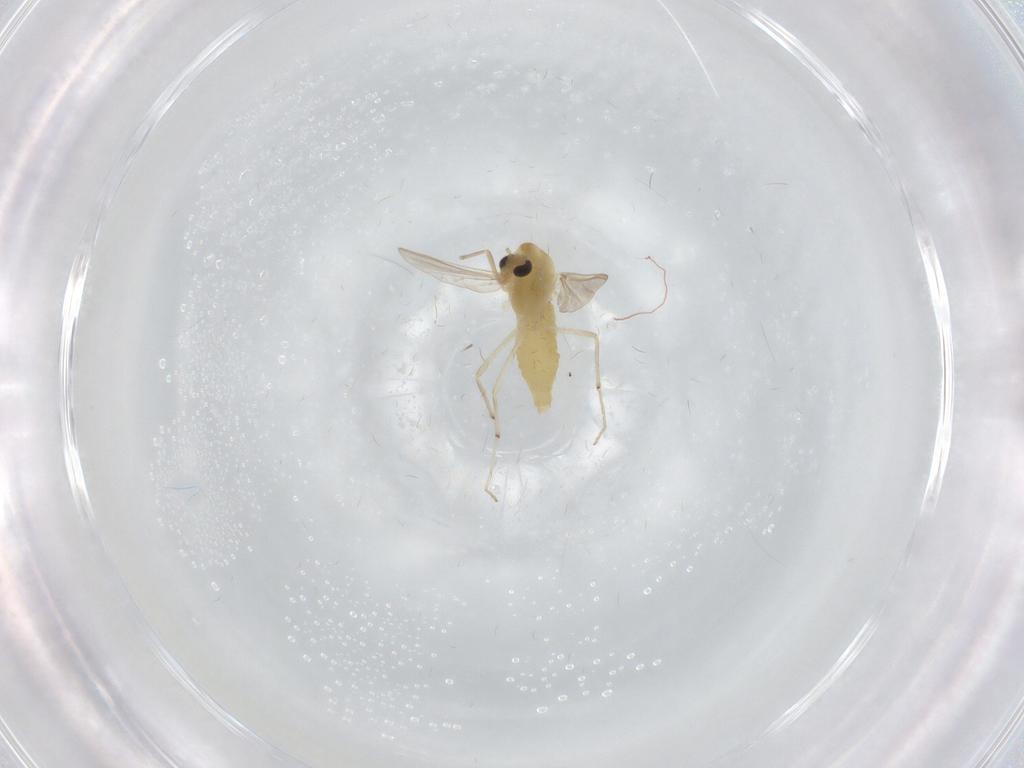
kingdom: Animalia
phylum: Arthropoda
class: Insecta
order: Diptera
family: Chironomidae
